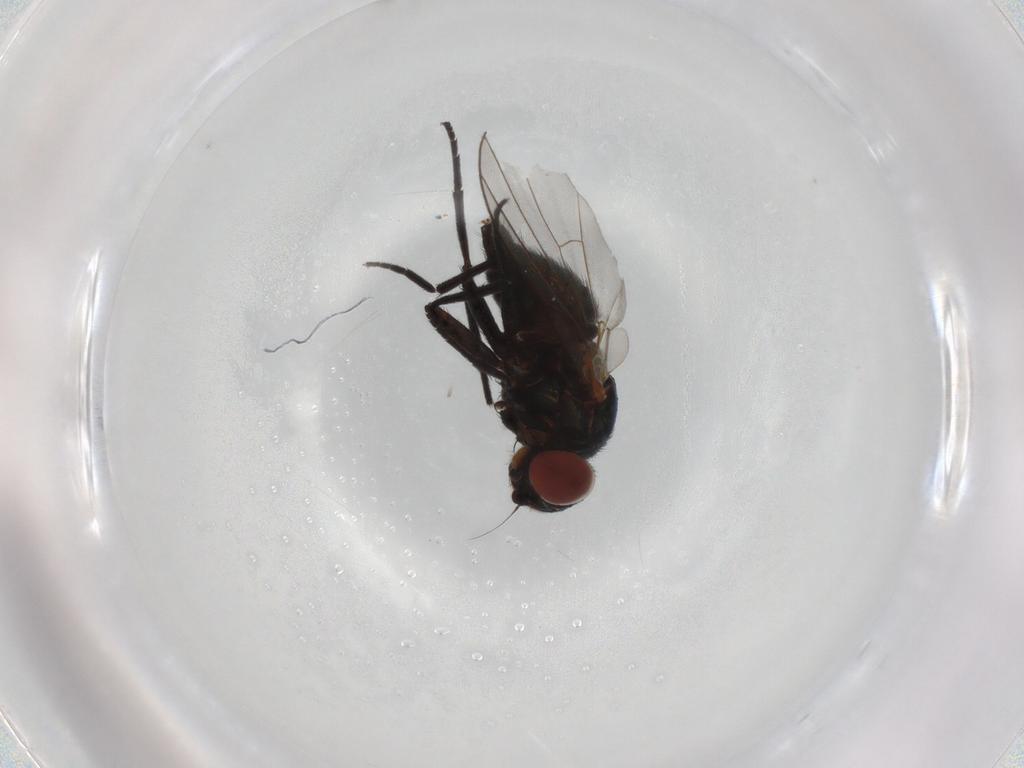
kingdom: Animalia
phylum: Arthropoda
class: Insecta
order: Diptera
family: Agromyzidae
